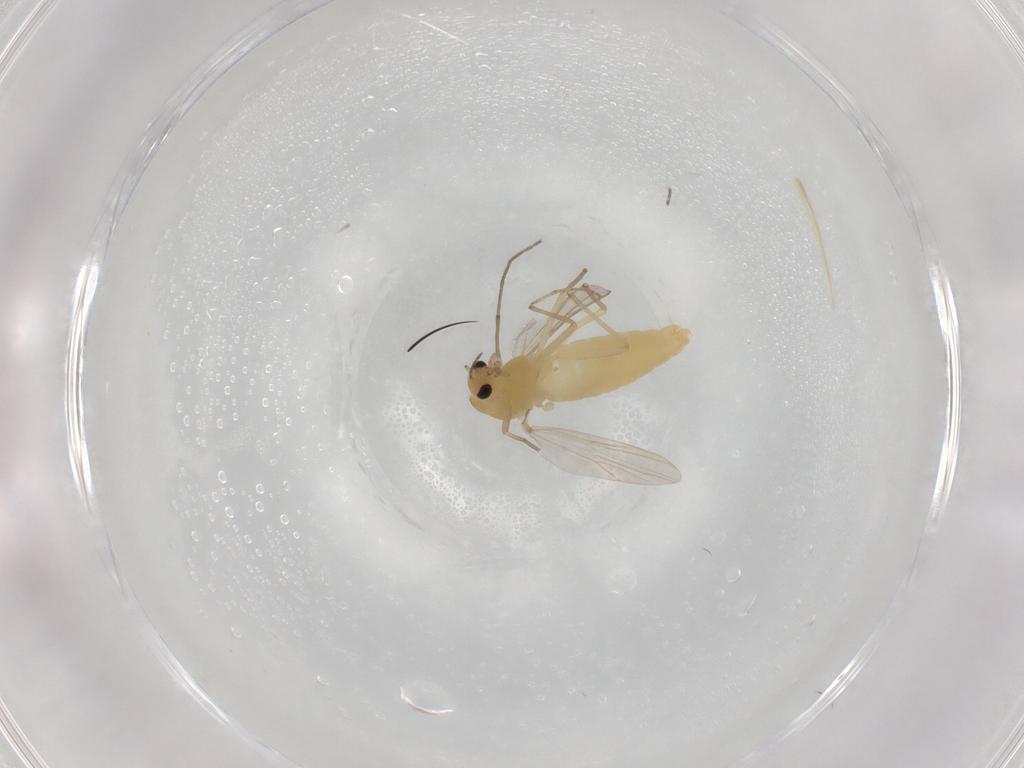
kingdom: Animalia
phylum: Arthropoda
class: Insecta
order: Diptera
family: Chironomidae
